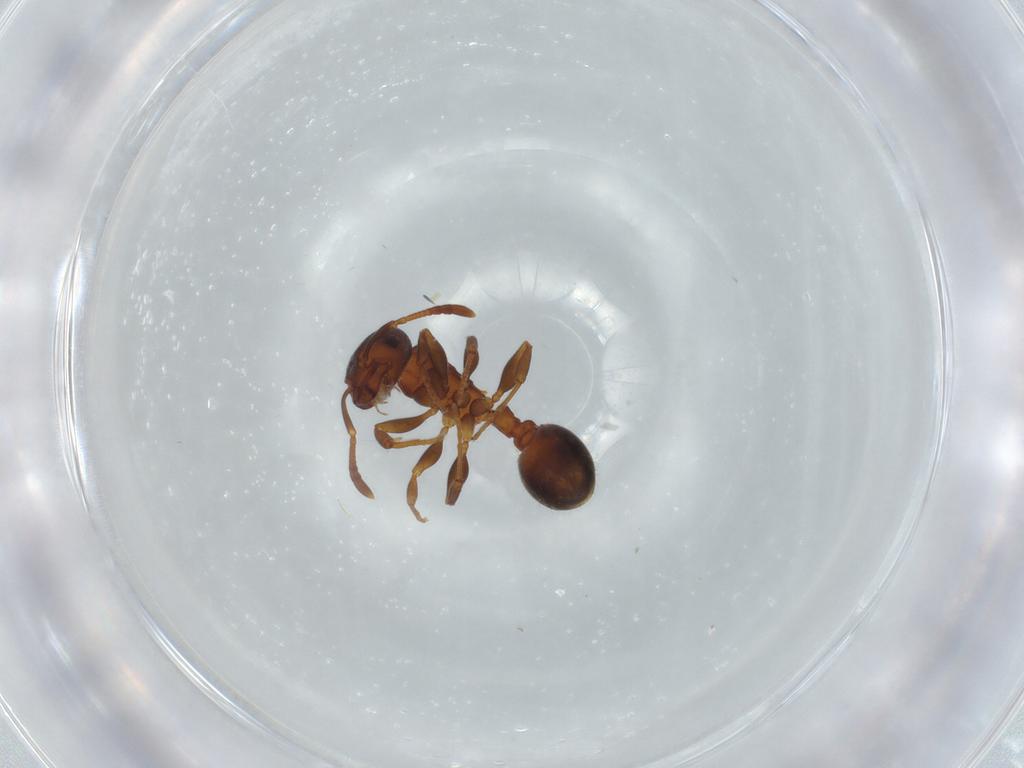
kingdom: Animalia
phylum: Arthropoda
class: Insecta
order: Hymenoptera
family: Formicidae
